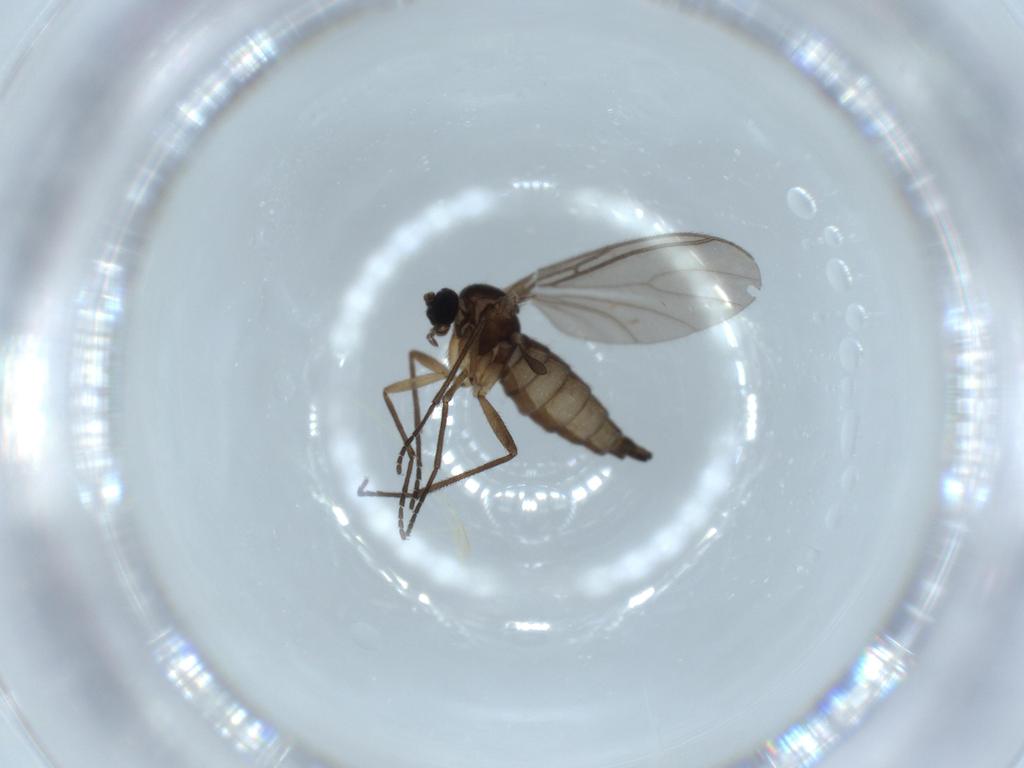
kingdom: Animalia
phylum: Arthropoda
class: Insecta
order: Diptera
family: Sciaridae
